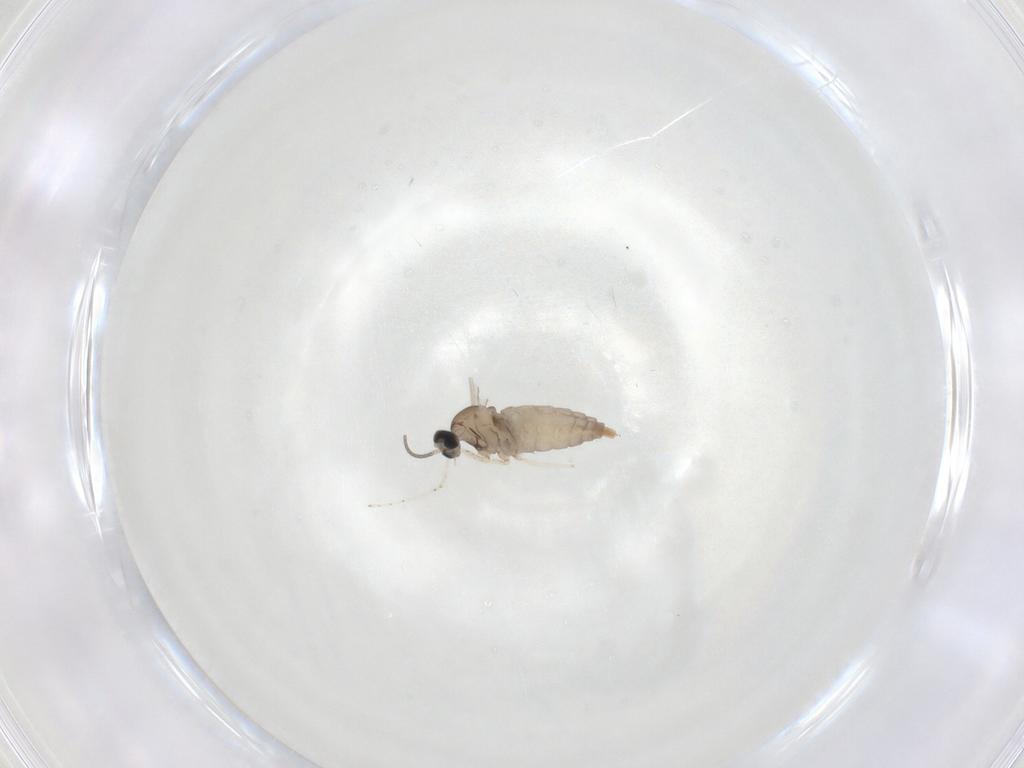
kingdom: Animalia
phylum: Arthropoda
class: Insecta
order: Diptera
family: Cecidomyiidae
